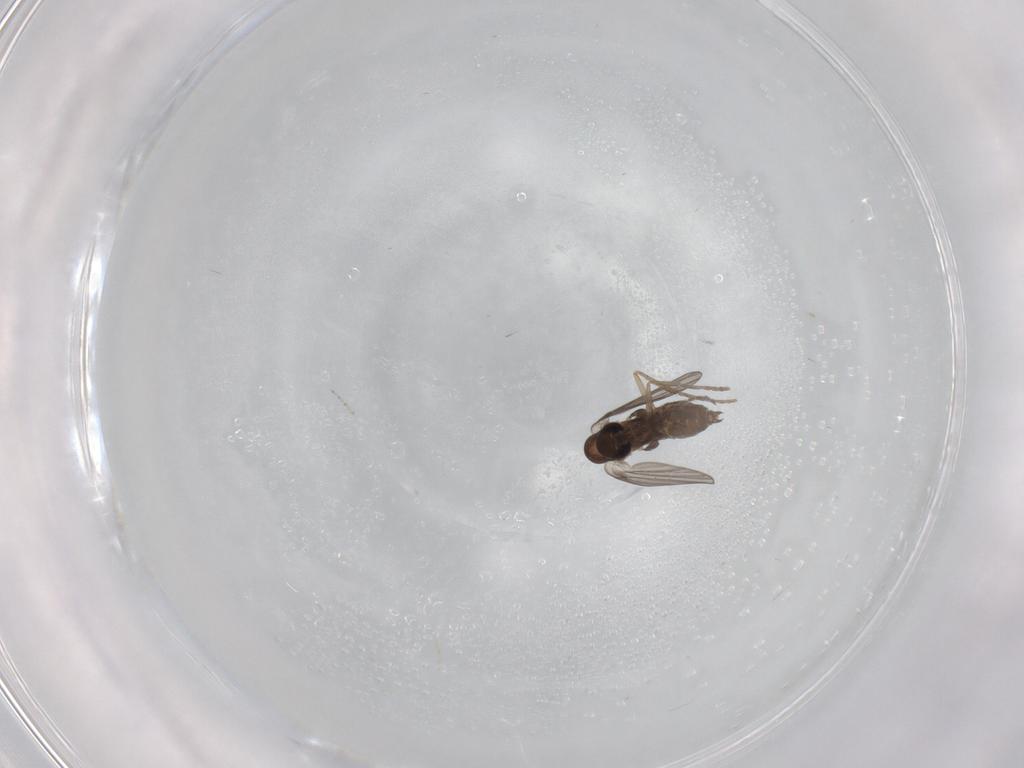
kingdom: Animalia
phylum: Arthropoda
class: Insecta
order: Diptera
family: Cecidomyiidae
